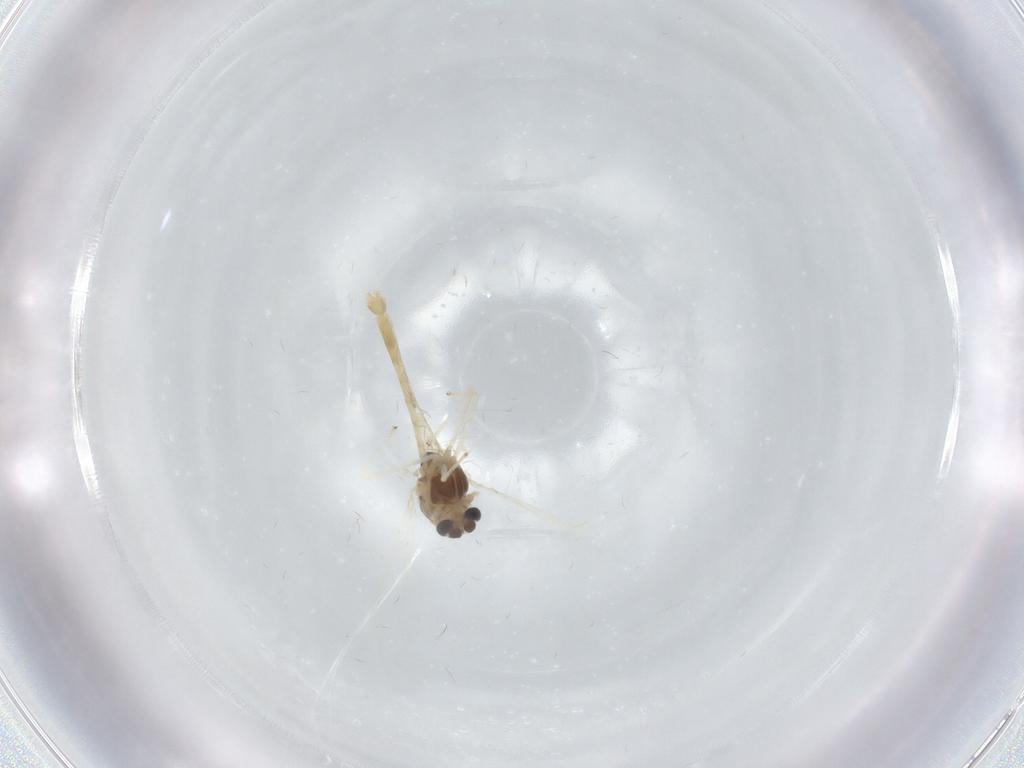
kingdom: Animalia
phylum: Arthropoda
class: Insecta
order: Diptera
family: Chironomidae
